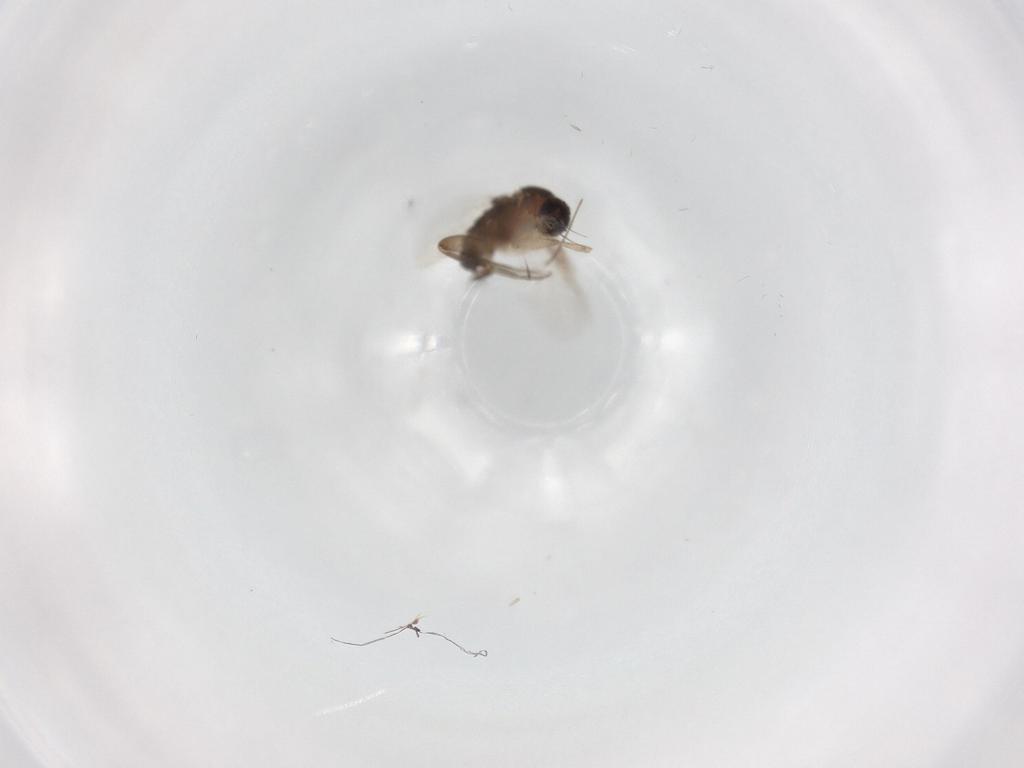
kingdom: Animalia
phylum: Arthropoda
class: Insecta
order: Diptera
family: Phoridae
